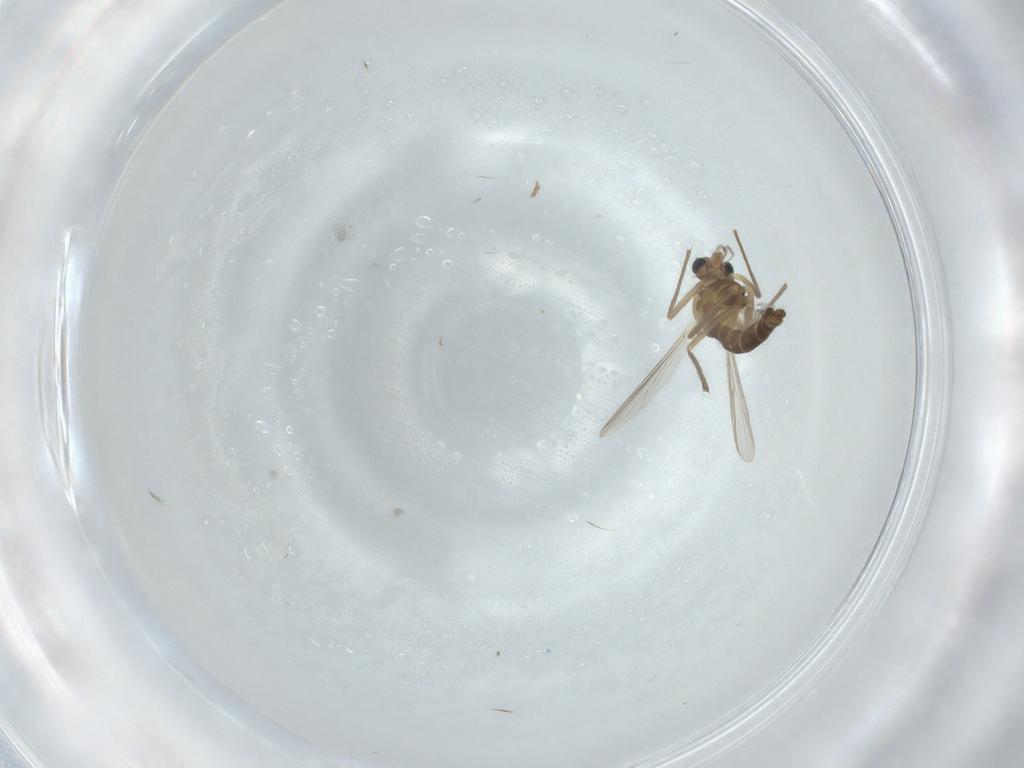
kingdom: Animalia
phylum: Arthropoda
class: Insecta
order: Diptera
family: Chironomidae
